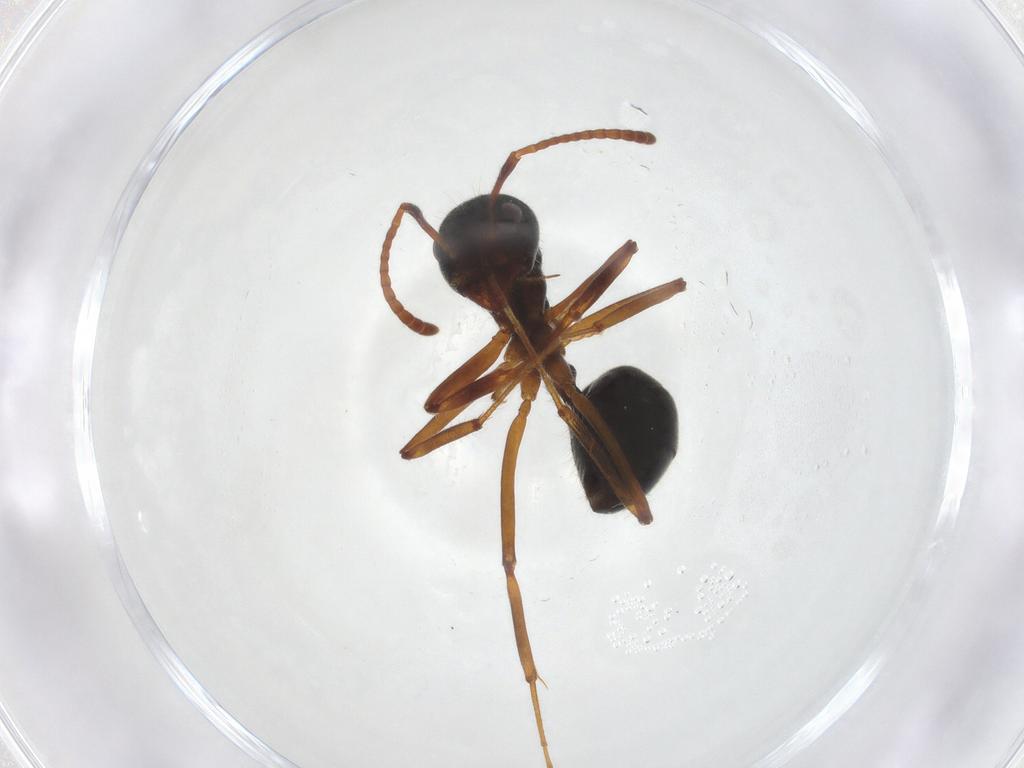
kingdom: Animalia
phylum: Arthropoda
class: Insecta
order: Hymenoptera
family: Formicidae
